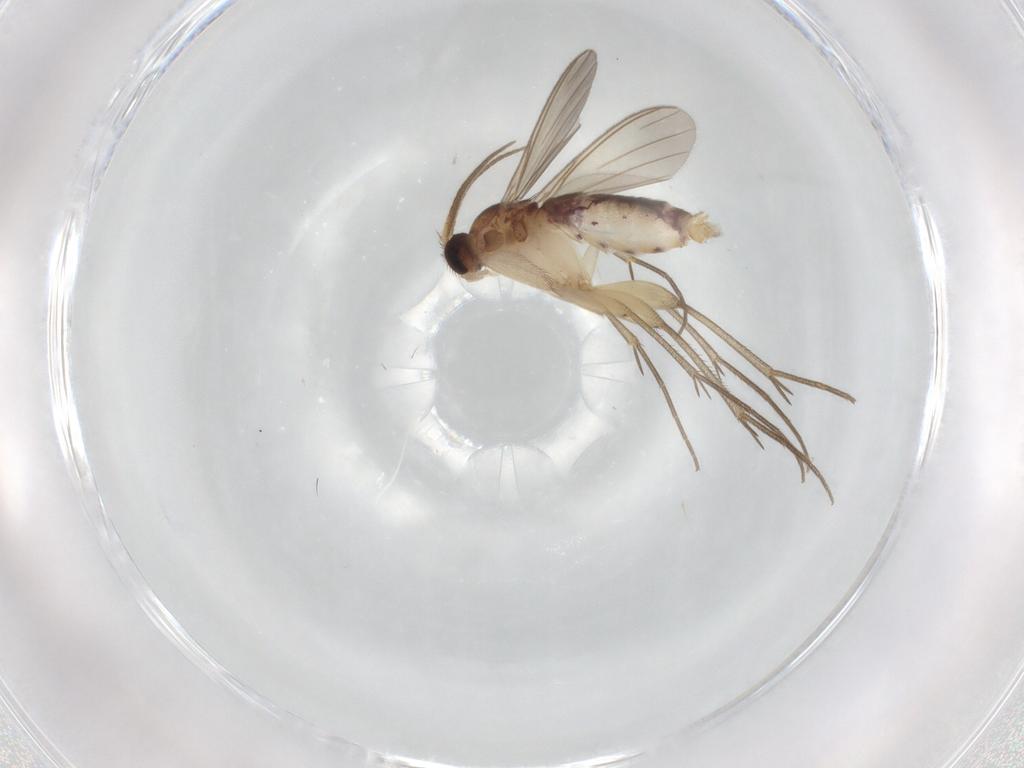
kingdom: Animalia
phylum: Arthropoda
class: Insecta
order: Diptera
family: Mycetophilidae
